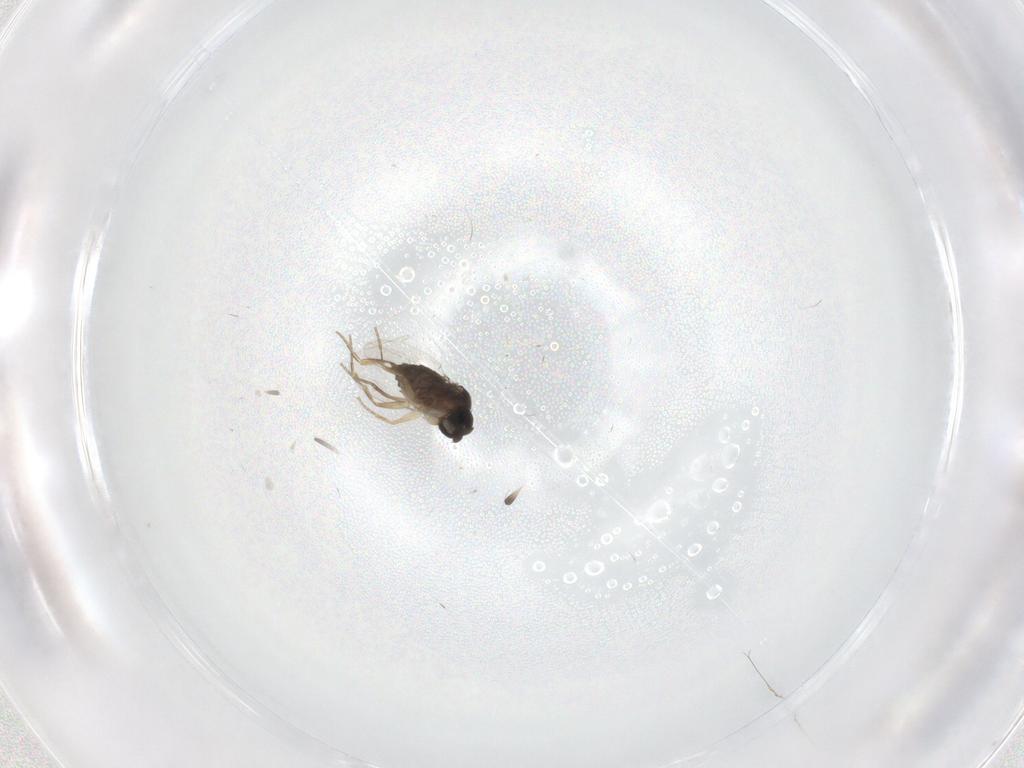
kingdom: Animalia
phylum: Arthropoda
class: Insecta
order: Diptera
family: Phoridae
